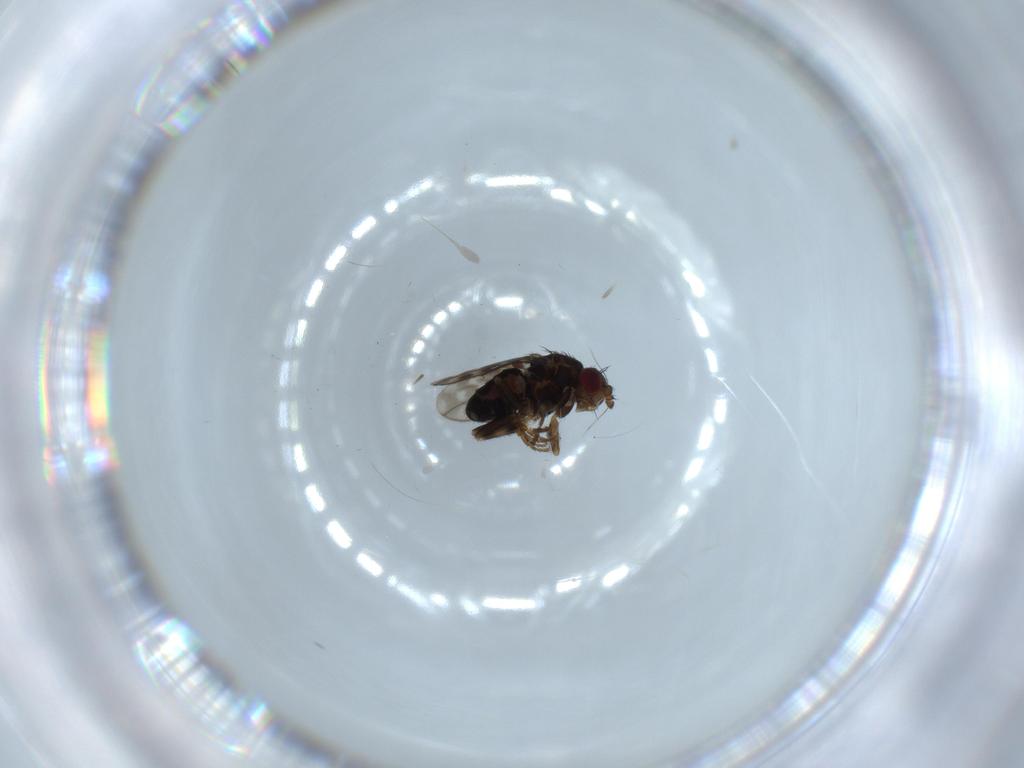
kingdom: Animalia
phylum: Arthropoda
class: Insecta
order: Diptera
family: Sphaeroceridae
